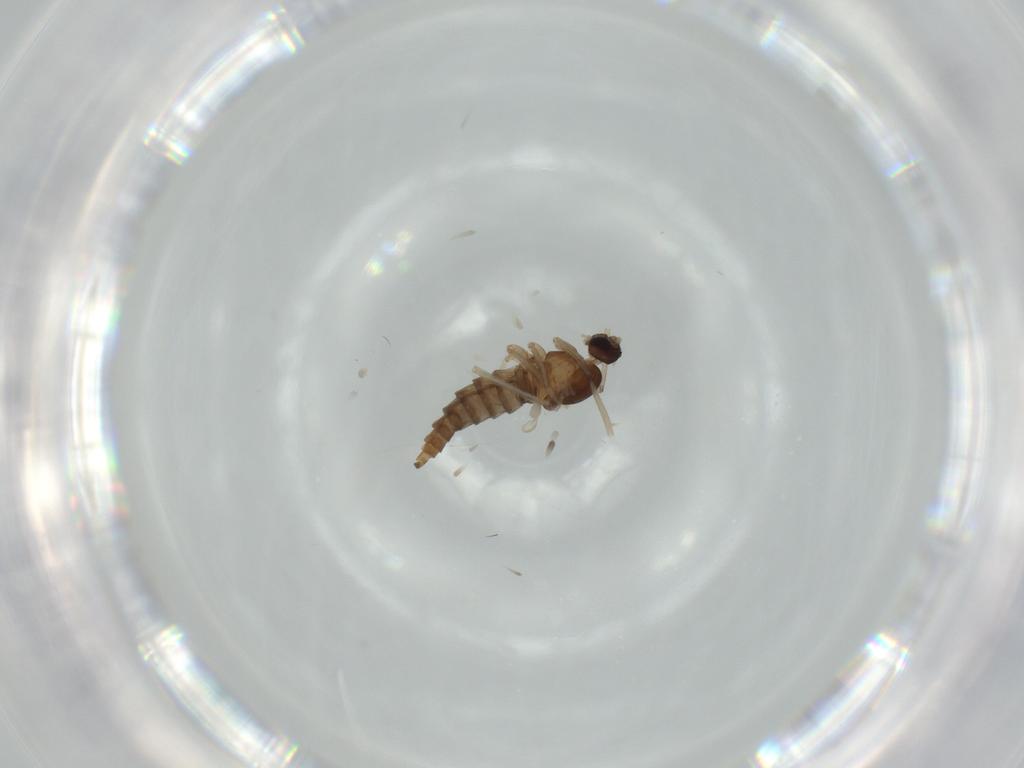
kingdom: Animalia
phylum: Arthropoda
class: Insecta
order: Diptera
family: Cecidomyiidae
